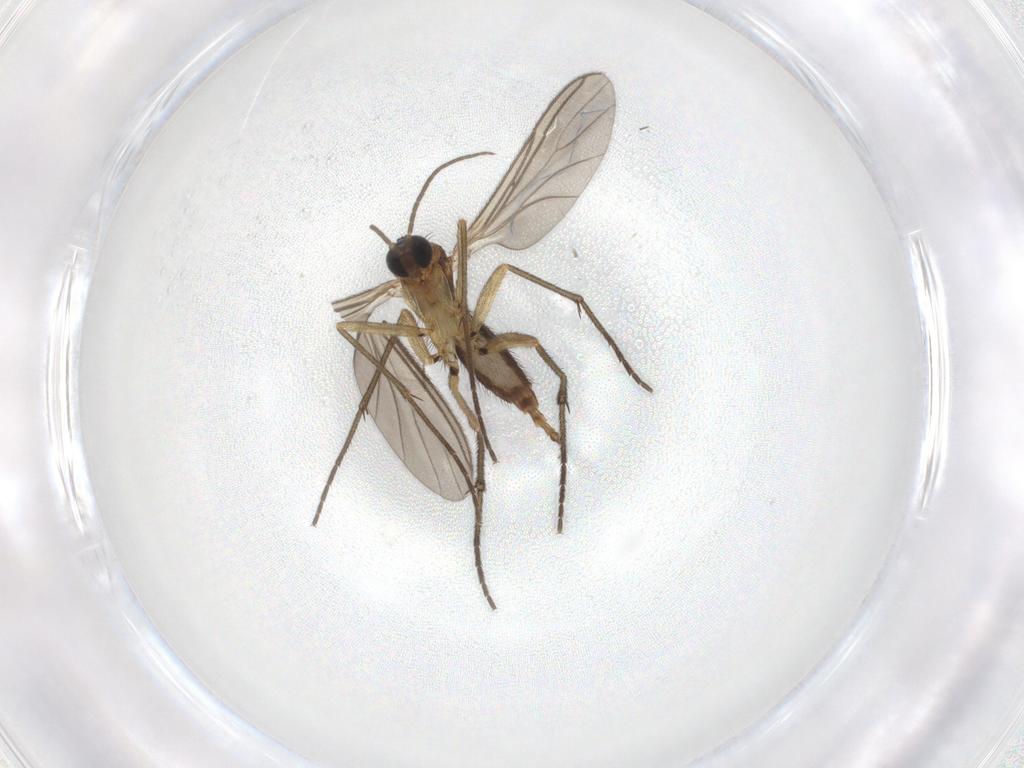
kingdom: Animalia
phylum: Arthropoda
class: Insecta
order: Diptera
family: Sciaridae
